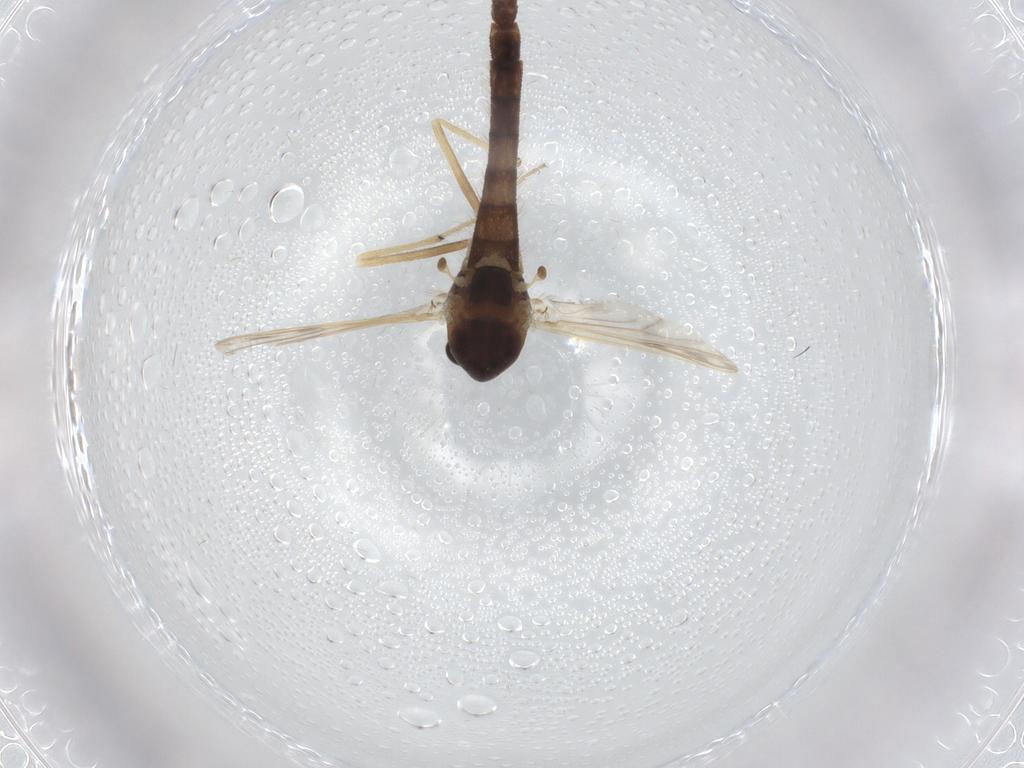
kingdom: Animalia
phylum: Arthropoda
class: Insecta
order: Diptera
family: Chironomidae
